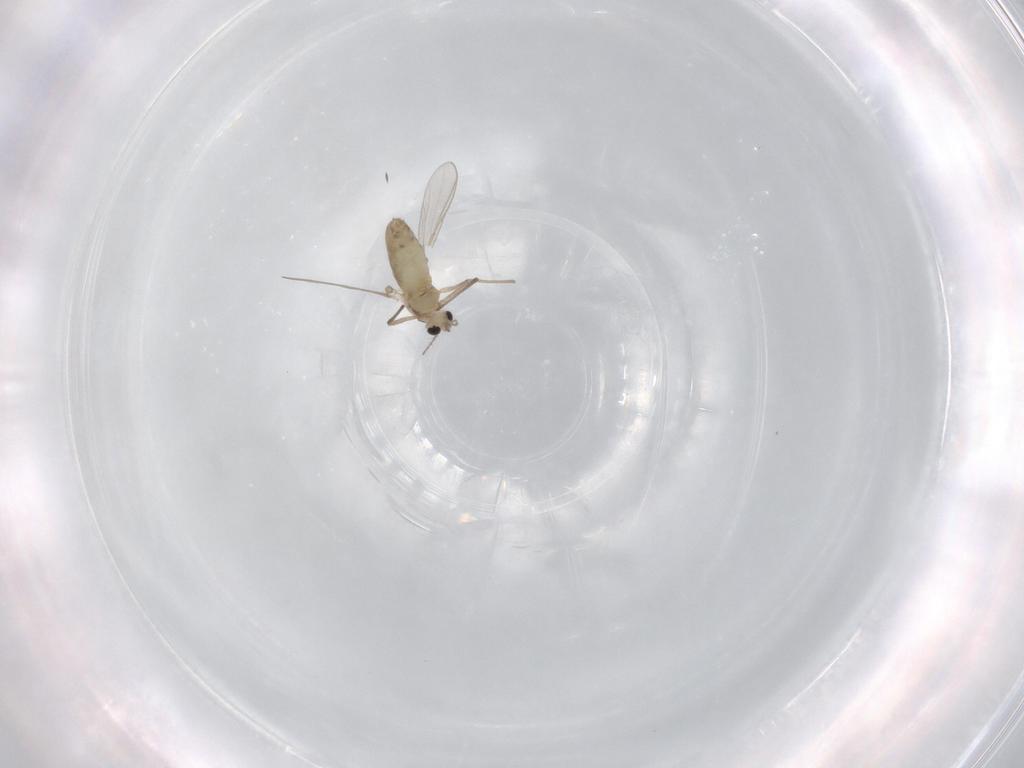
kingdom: Animalia
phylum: Arthropoda
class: Insecta
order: Diptera
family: Chironomidae
